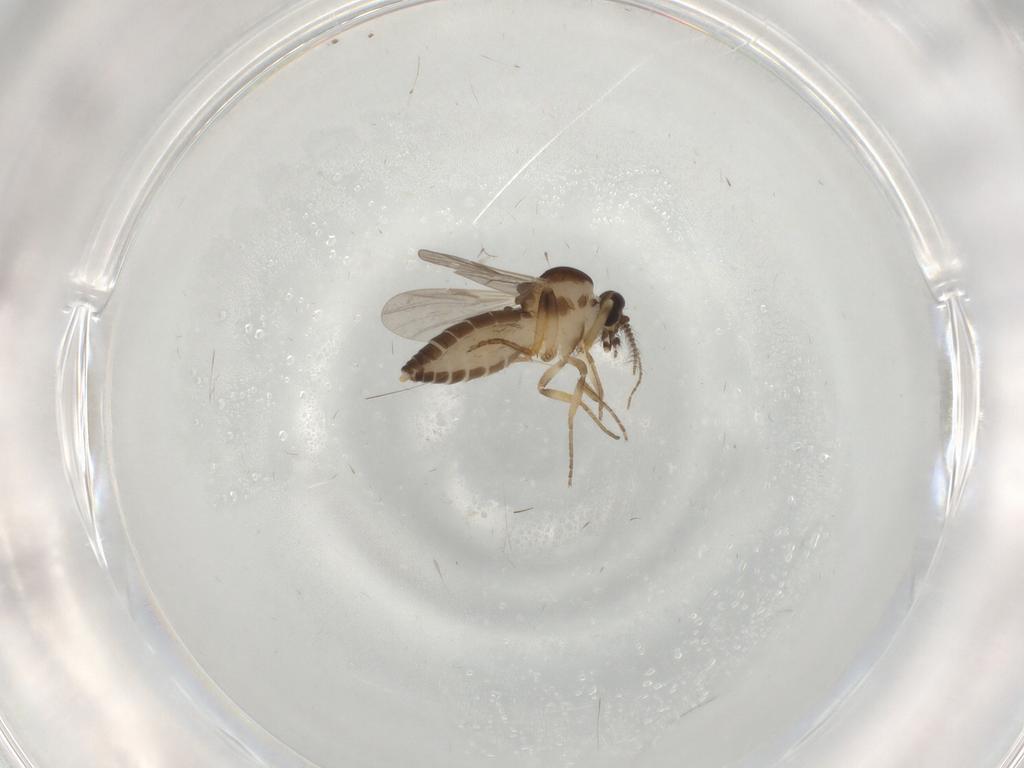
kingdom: Animalia
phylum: Arthropoda
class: Insecta
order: Diptera
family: Ceratopogonidae
